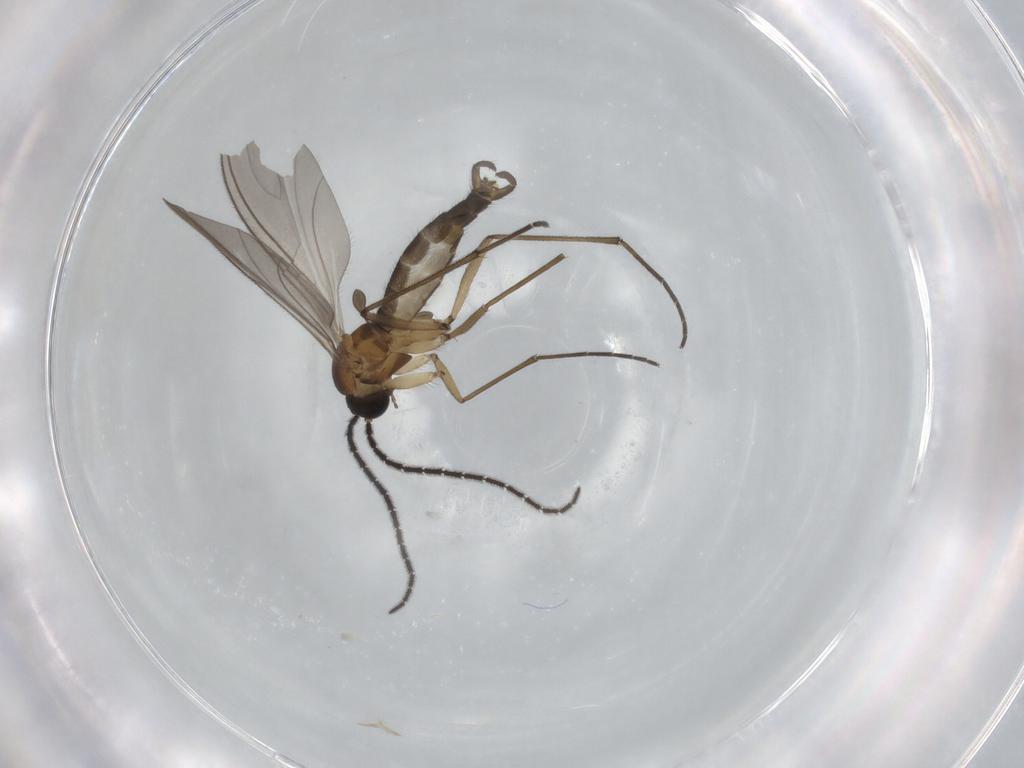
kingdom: Animalia
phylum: Arthropoda
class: Insecta
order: Diptera
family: Sciaridae
